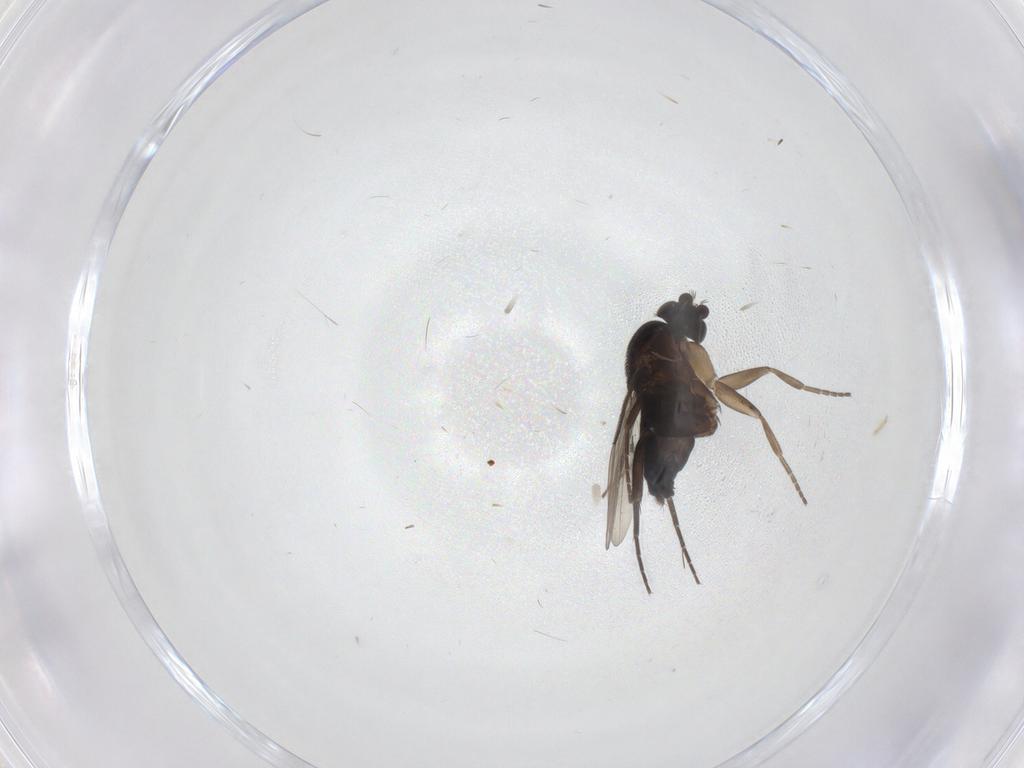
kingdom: Animalia
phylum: Arthropoda
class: Insecta
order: Diptera
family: Phoridae
